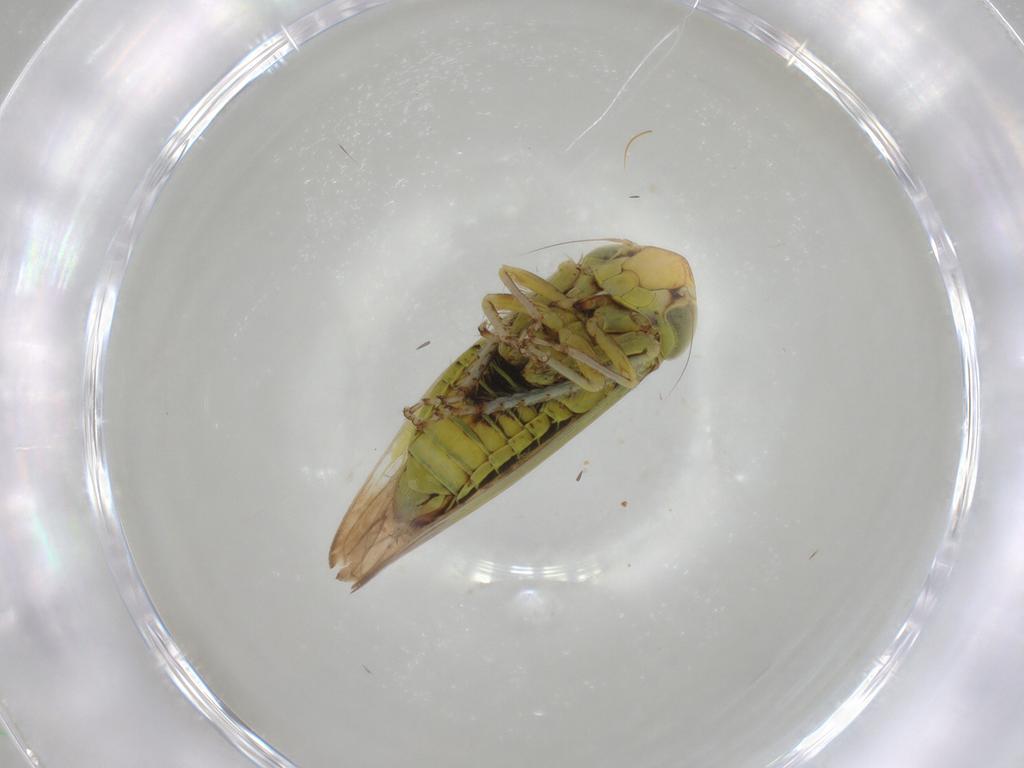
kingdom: Animalia
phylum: Arthropoda
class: Insecta
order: Hemiptera
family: Cicadellidae
